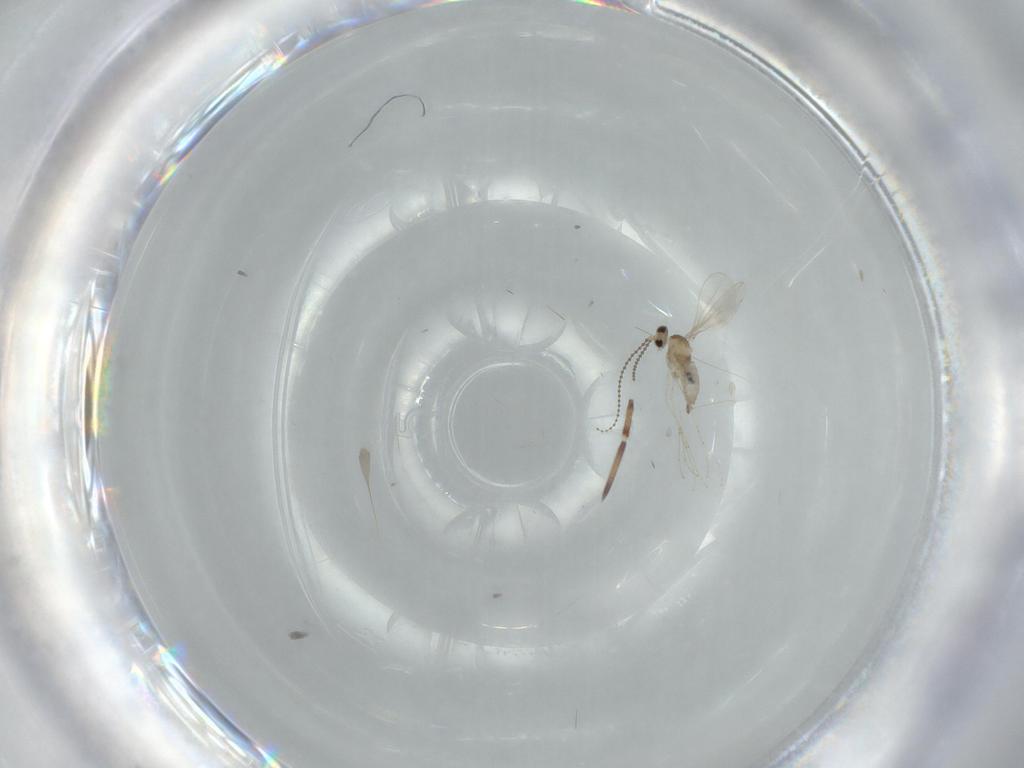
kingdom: Animalia
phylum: Arthropoda
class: Insecta
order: Diptera
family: Cecidomyiidae
